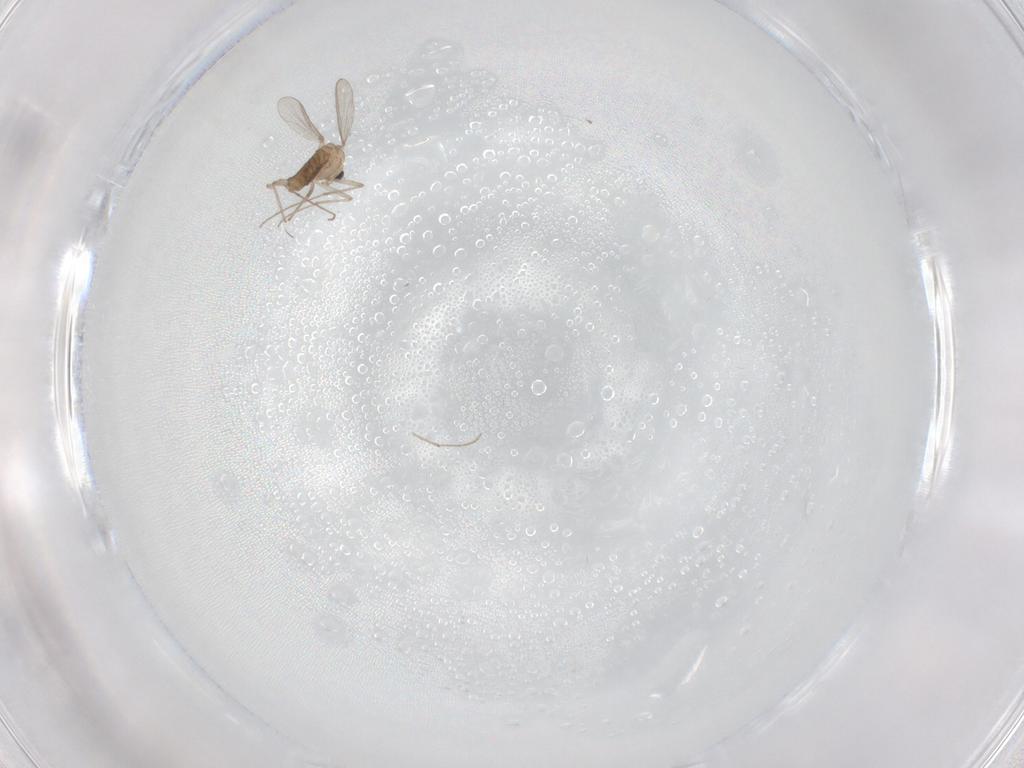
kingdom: Animalia
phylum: Arthropoda
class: Insecta
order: Diptera
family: Chironomidae
